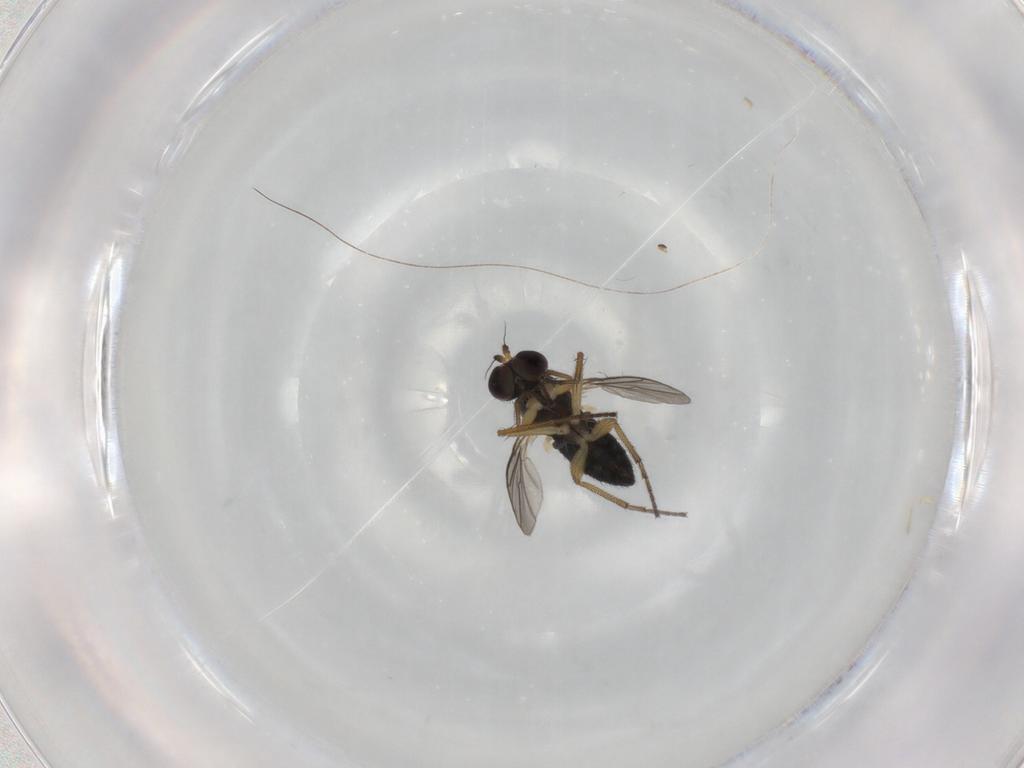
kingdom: Animalia
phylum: Arthropoda
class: Insecta
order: Diptera
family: Dolichopodidae
